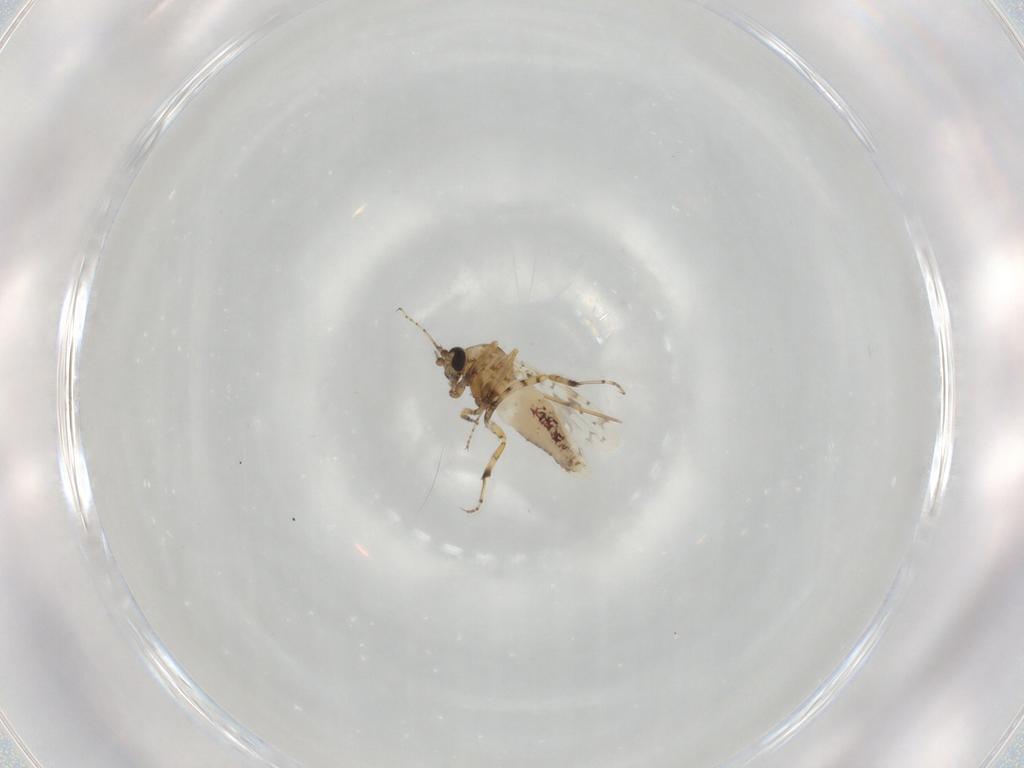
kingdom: Animalia
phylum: Arthropoda
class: Insecta
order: Diptera
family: Ceratopogonidae
